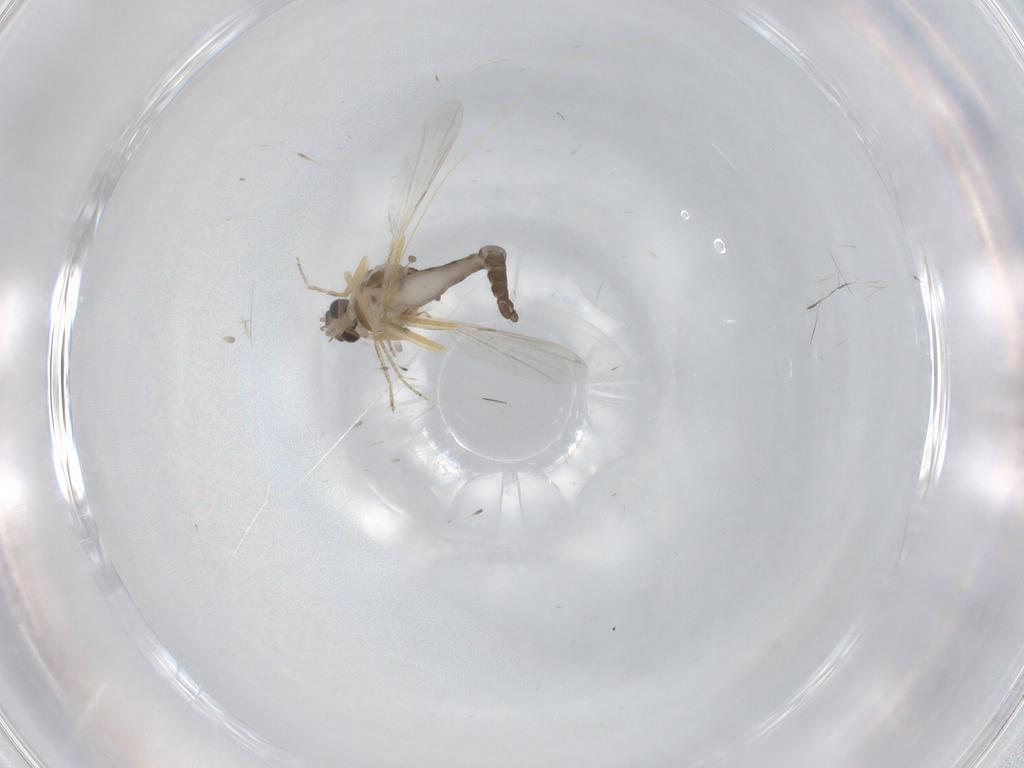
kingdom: Animalia
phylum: Arthropoda
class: Insecta
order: Diptera
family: Ceratopogonidae
